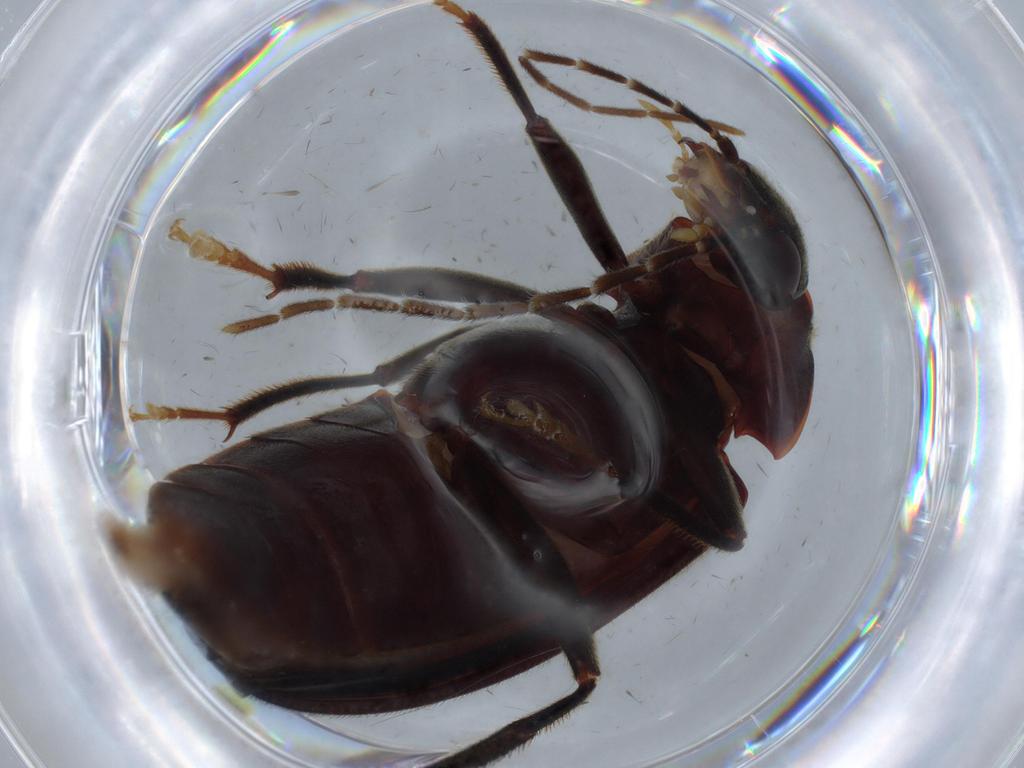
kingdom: Animalia
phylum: Arthropoda
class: Insecta
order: Coleoptera
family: Ptilodactylidae
